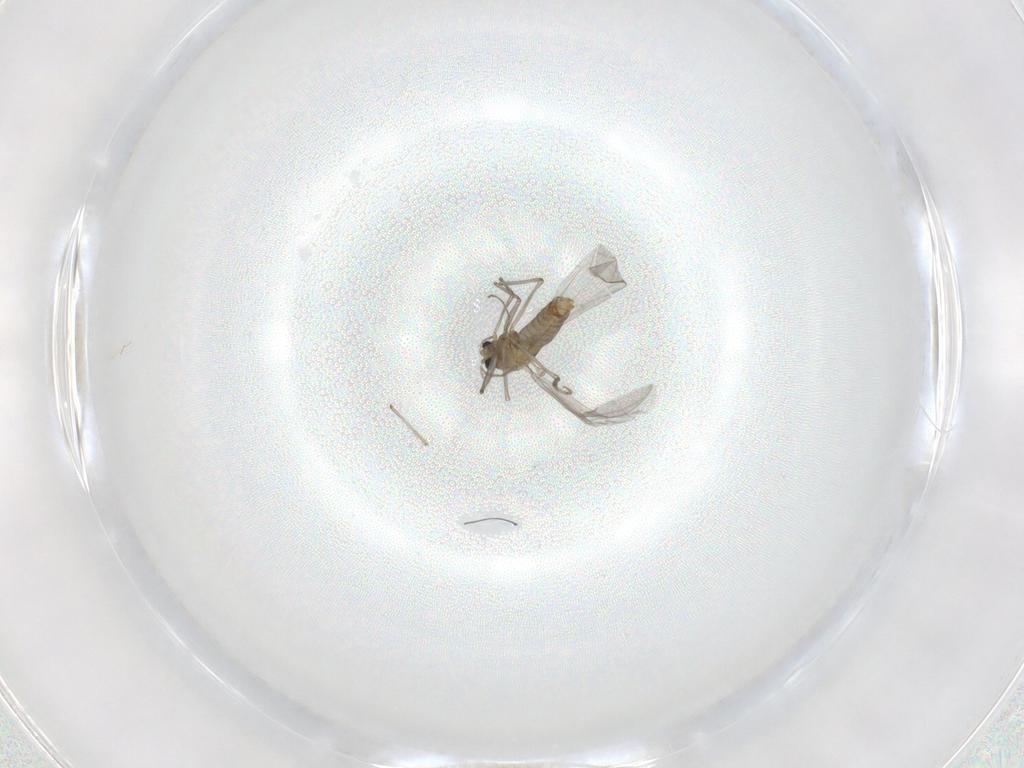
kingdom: Animalia
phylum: Arthropoda
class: Insecta
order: Diptera
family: Chironomidae
